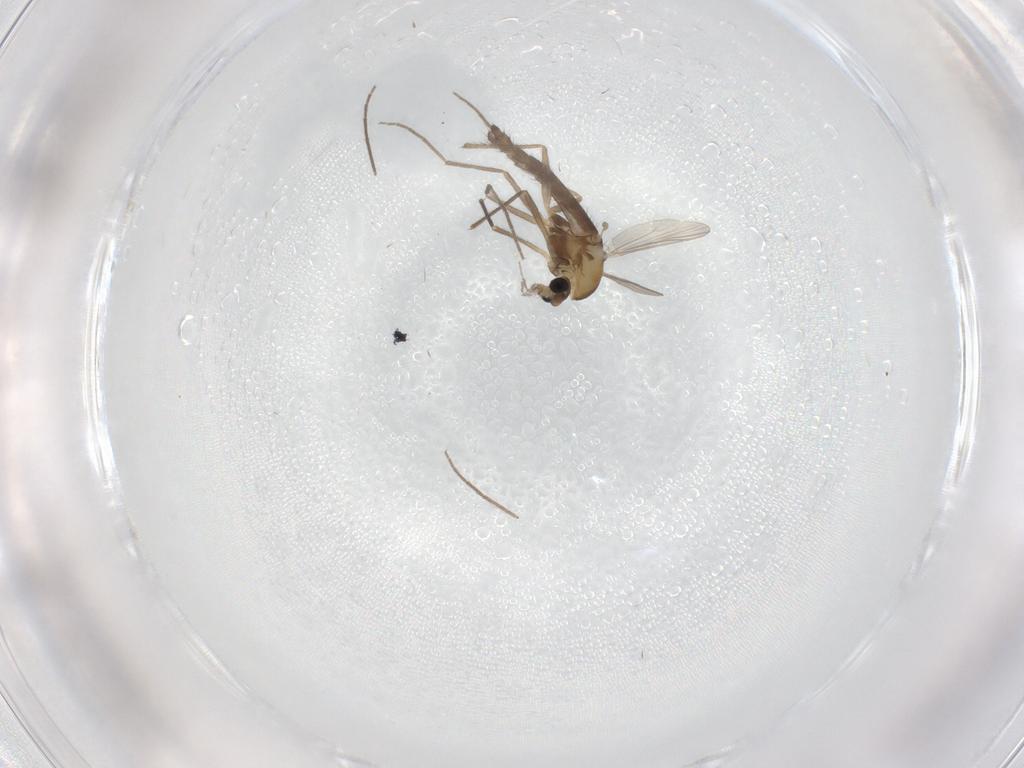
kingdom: Animalia
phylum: Arthropoda
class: Insecta
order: Diptera
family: Chironomidae
